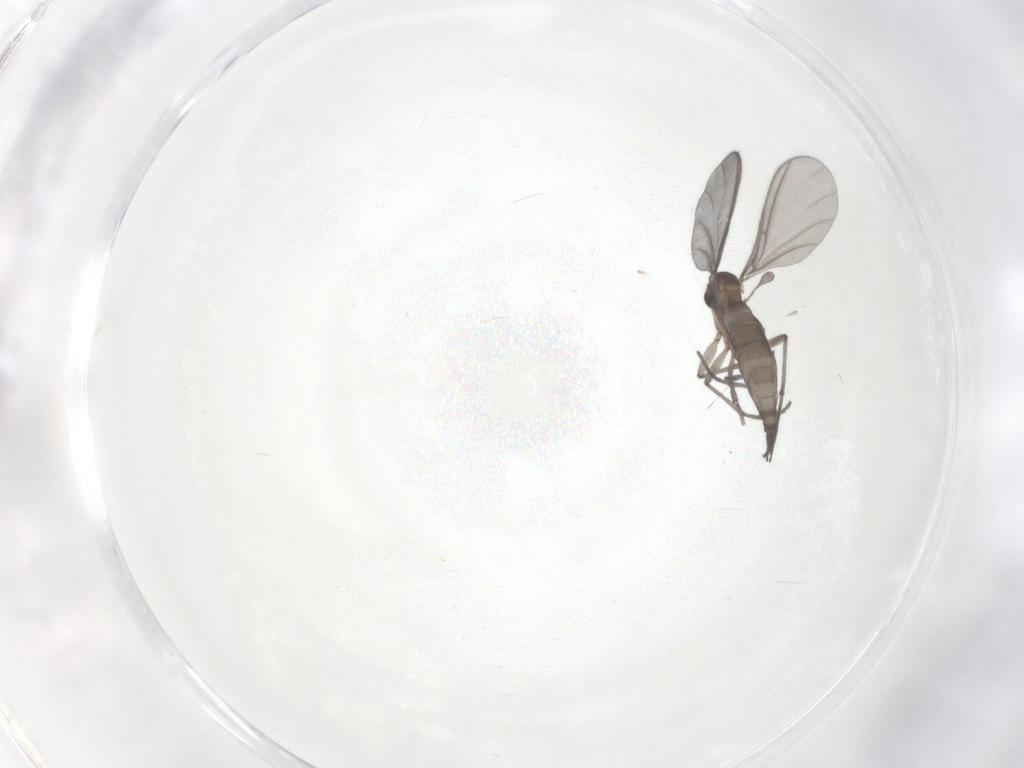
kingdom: Animalia
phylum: Arthropoda
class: Insecta
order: Diptera
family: Sciaridae
